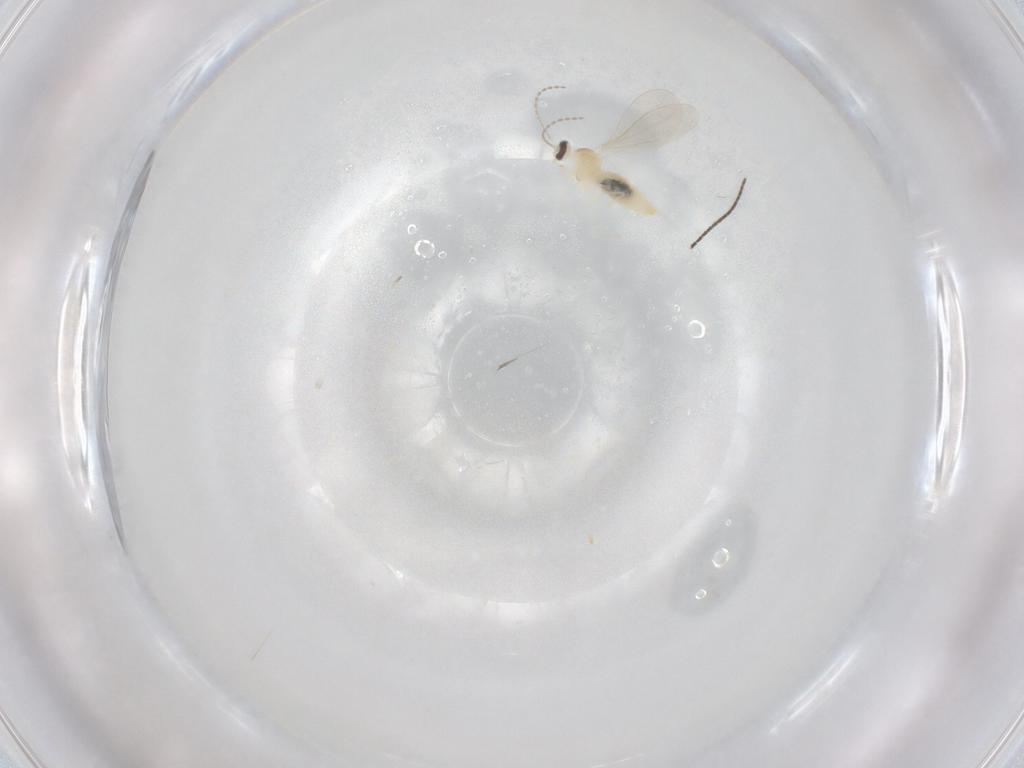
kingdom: Animalia
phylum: Arthropoda
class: Insecta
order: Diptera
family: Cecidomyiidae
